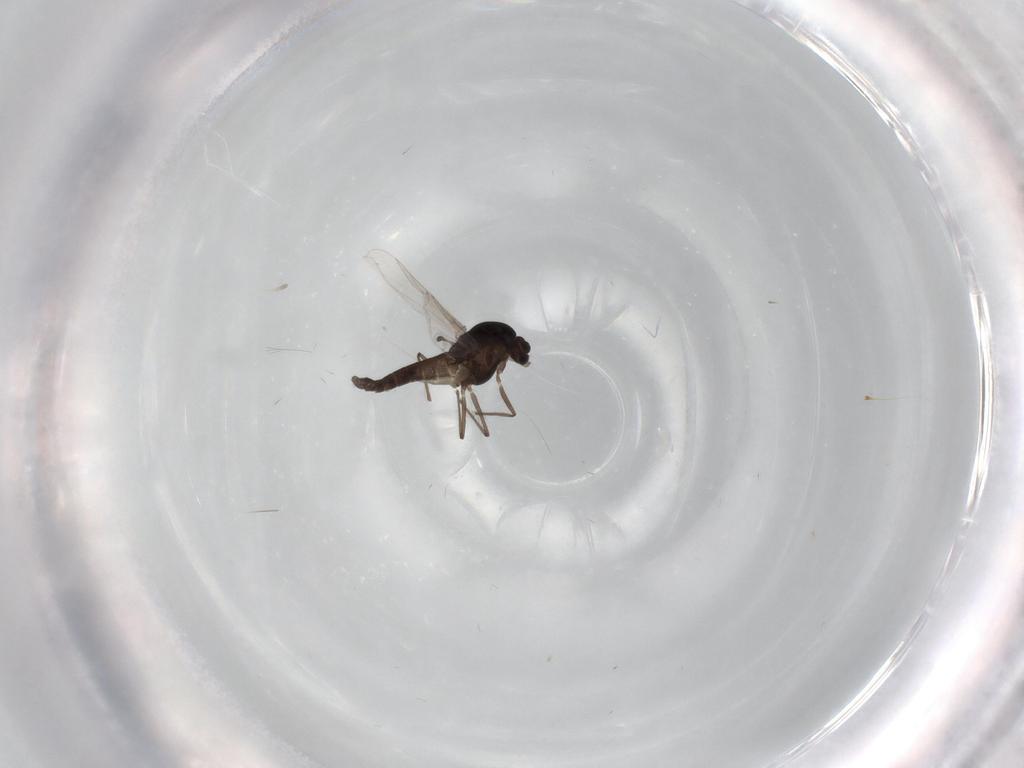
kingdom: Animalia
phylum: Arthropoda
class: Insecta
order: Diptera
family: Chironomidae
